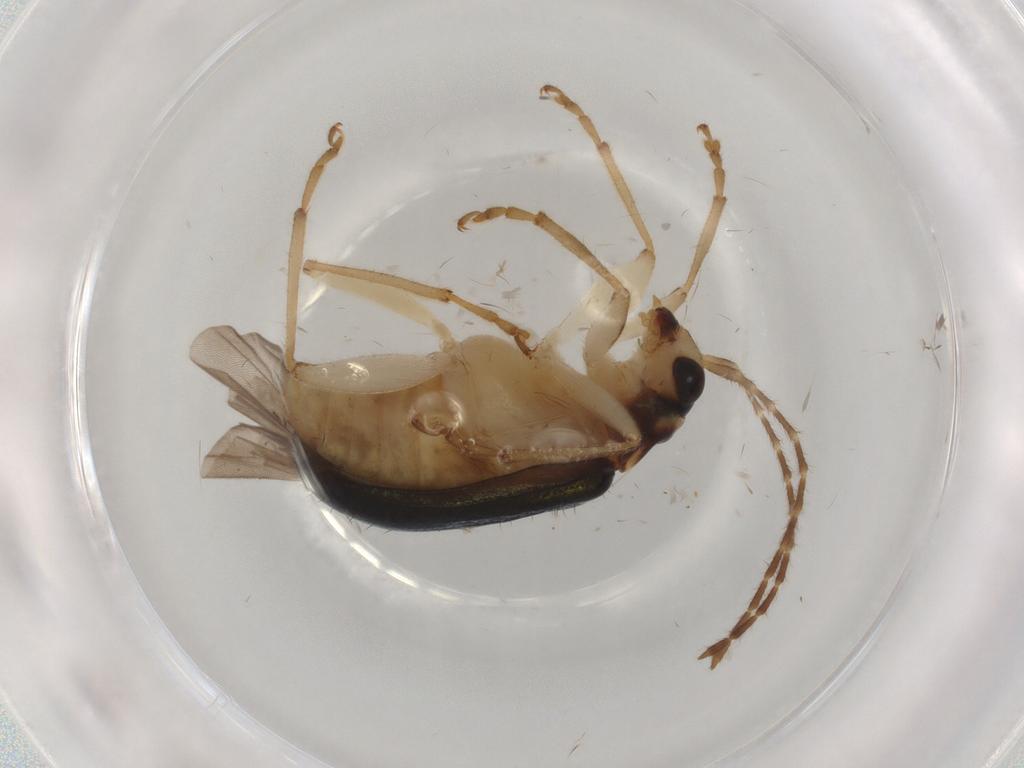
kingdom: Animalia
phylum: Arthropoda
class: Insecta
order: Coleoptera
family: Chrysomelidae
